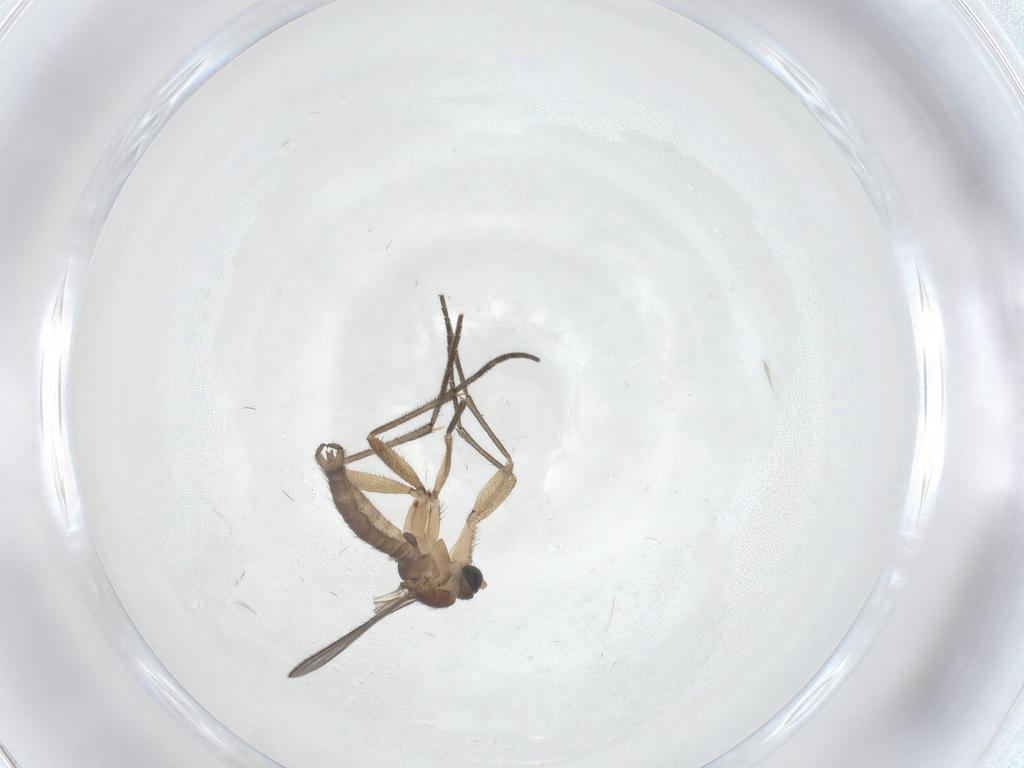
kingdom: Animalia
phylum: Arthropoda
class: Insecta
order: Diptera
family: Sciaridae
